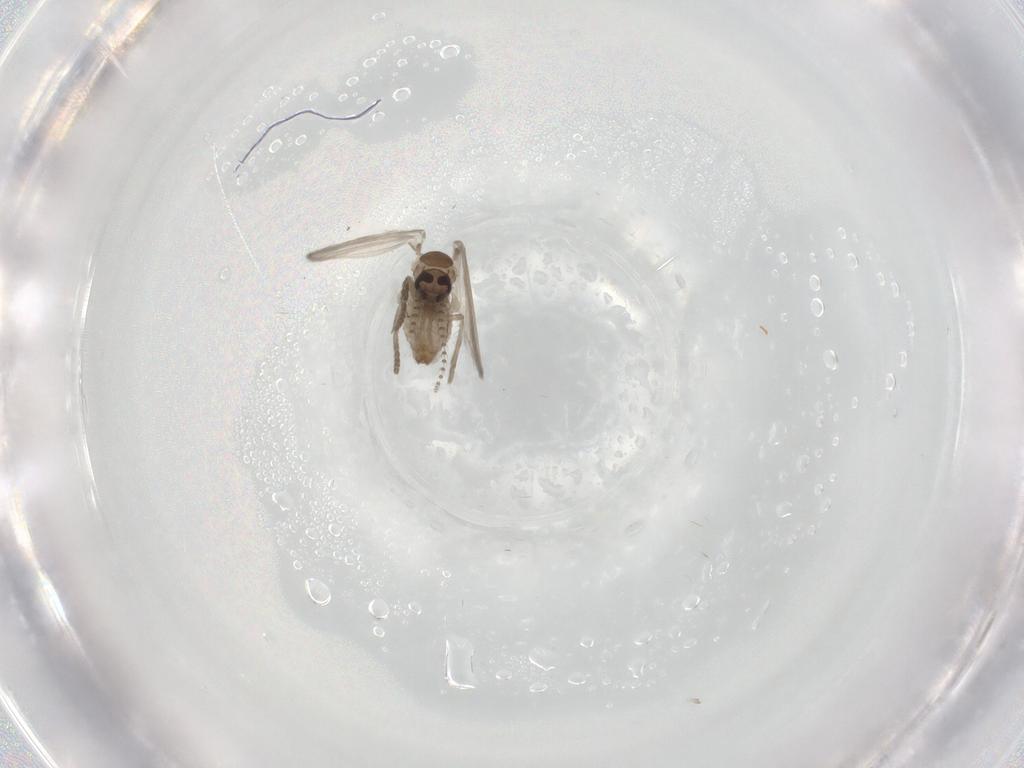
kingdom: Animalia
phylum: Arthropoda
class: Insecta
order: Diptera
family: Psychodidae
